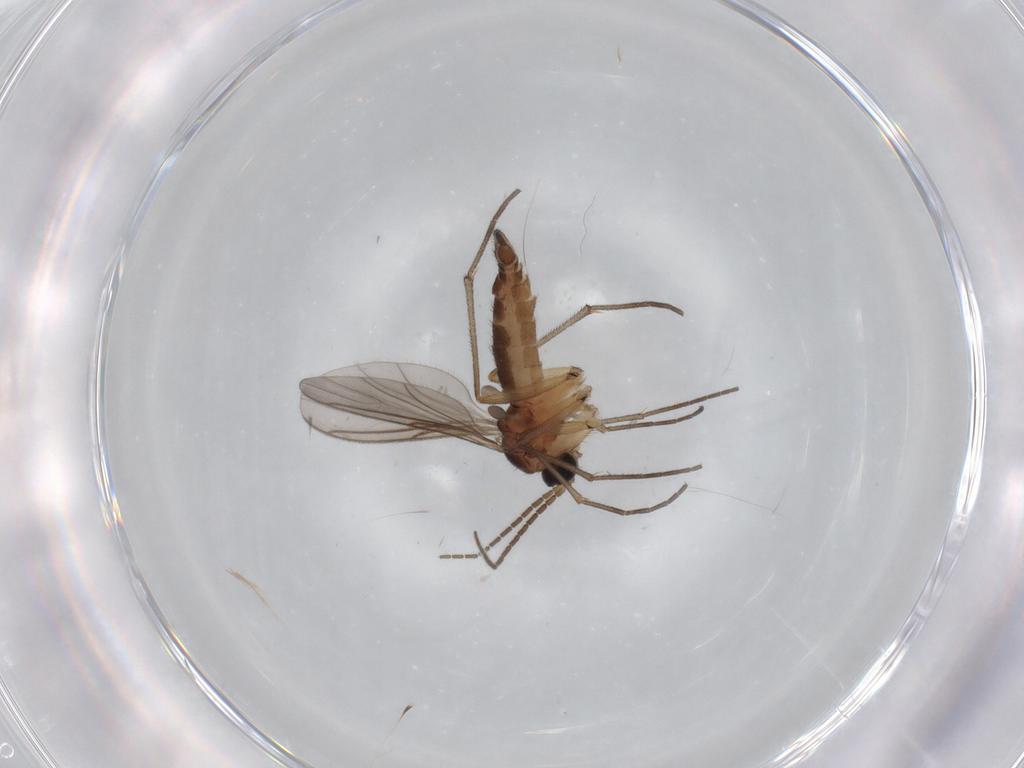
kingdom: Animalia
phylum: Arthropoda
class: Insecta
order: Diptera
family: Sciaridae
